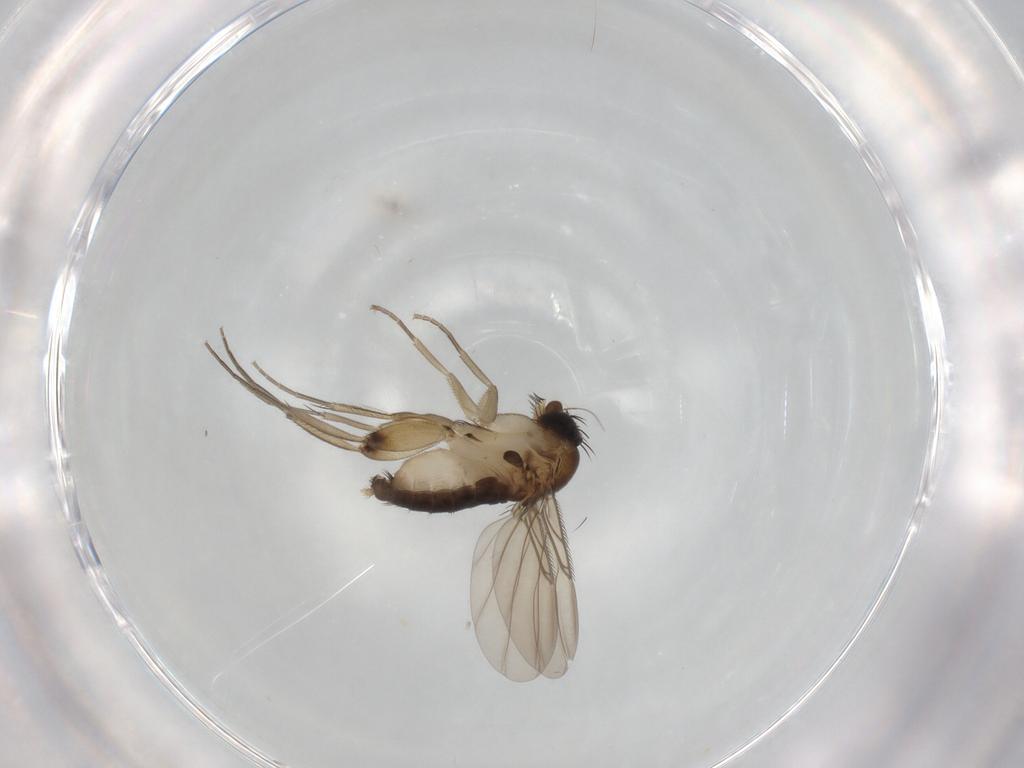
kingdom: Animalia
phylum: Arthropoda
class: Insecta
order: Diptera
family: Phoridae
